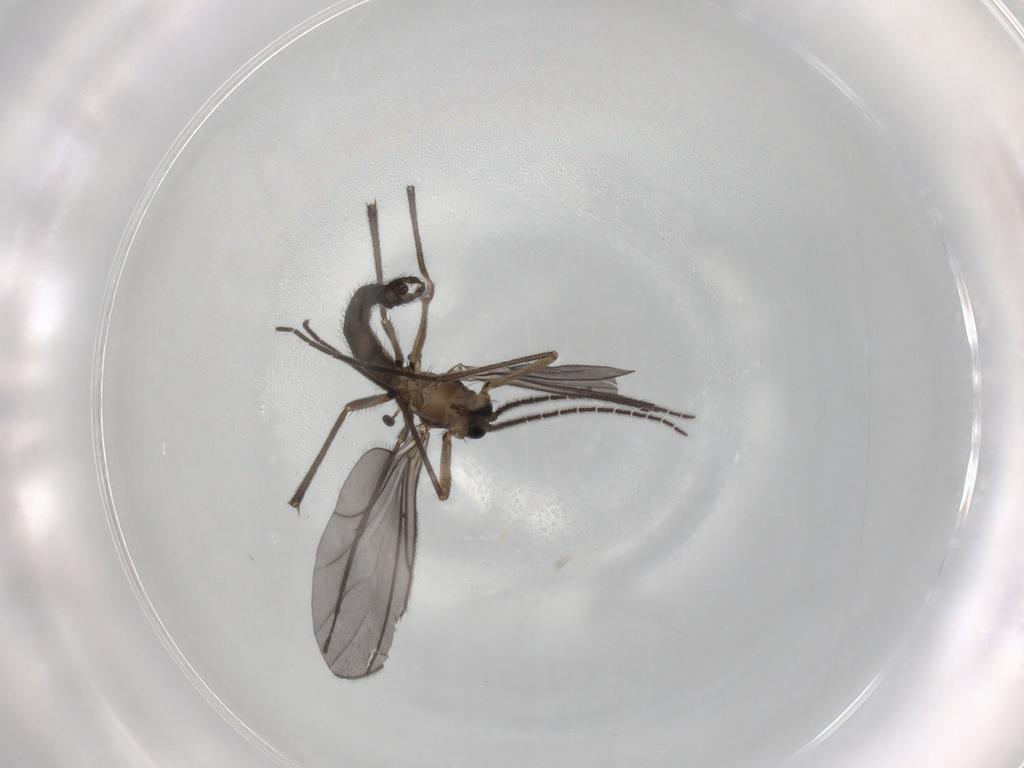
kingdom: Animalia
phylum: Arthropoda
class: Insecta
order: Diptera
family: Sciaridae
